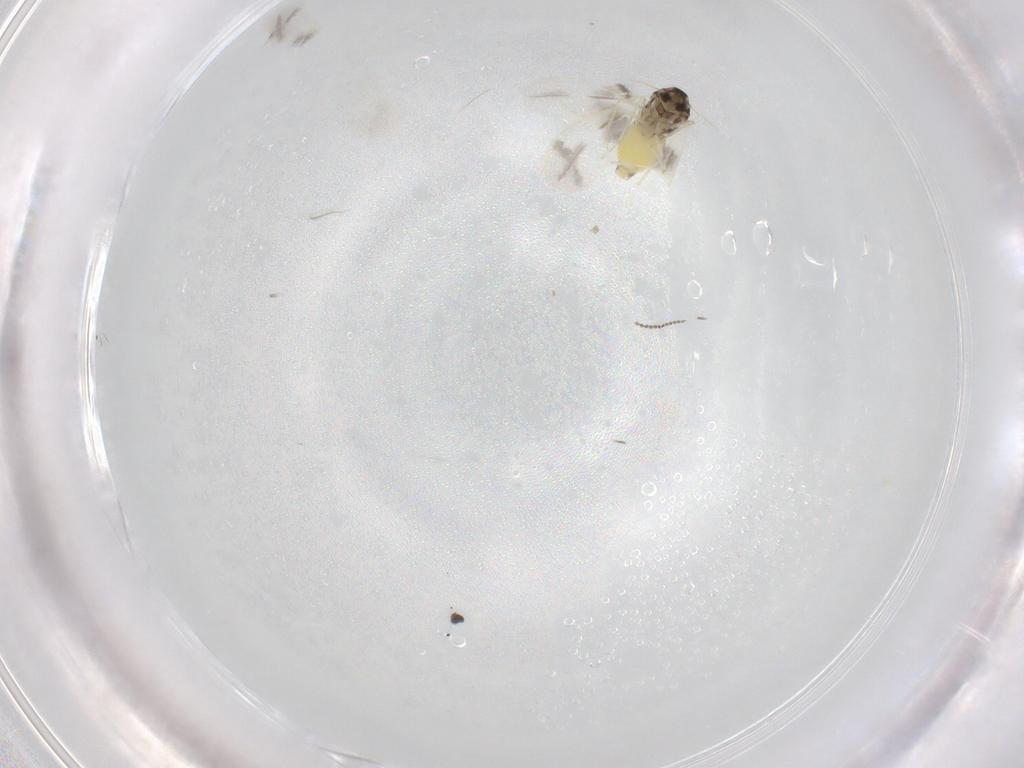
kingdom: Animalia
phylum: Arthropoda
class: Insecta
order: Hemiptera
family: Aleyrodidae
